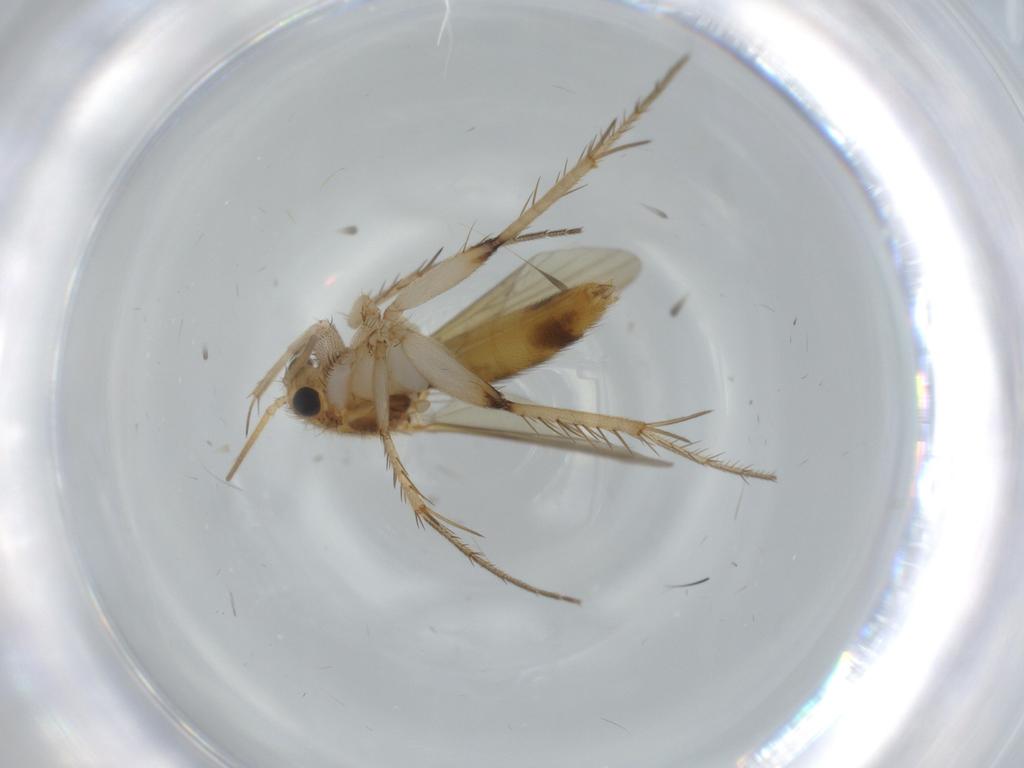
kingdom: Animalia
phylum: Arthropoda
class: Insecta
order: Diptera
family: Ceratopogonidae
